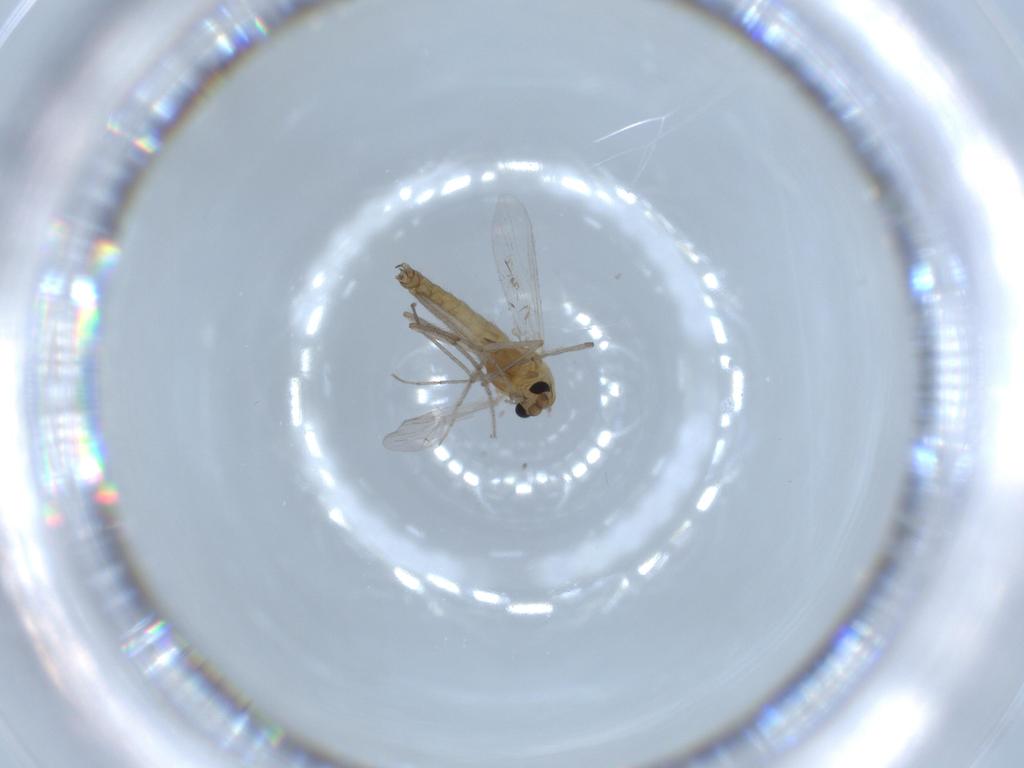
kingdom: Animalia
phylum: Arthropoda
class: Insecta
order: Diptera
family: Chironomidae
